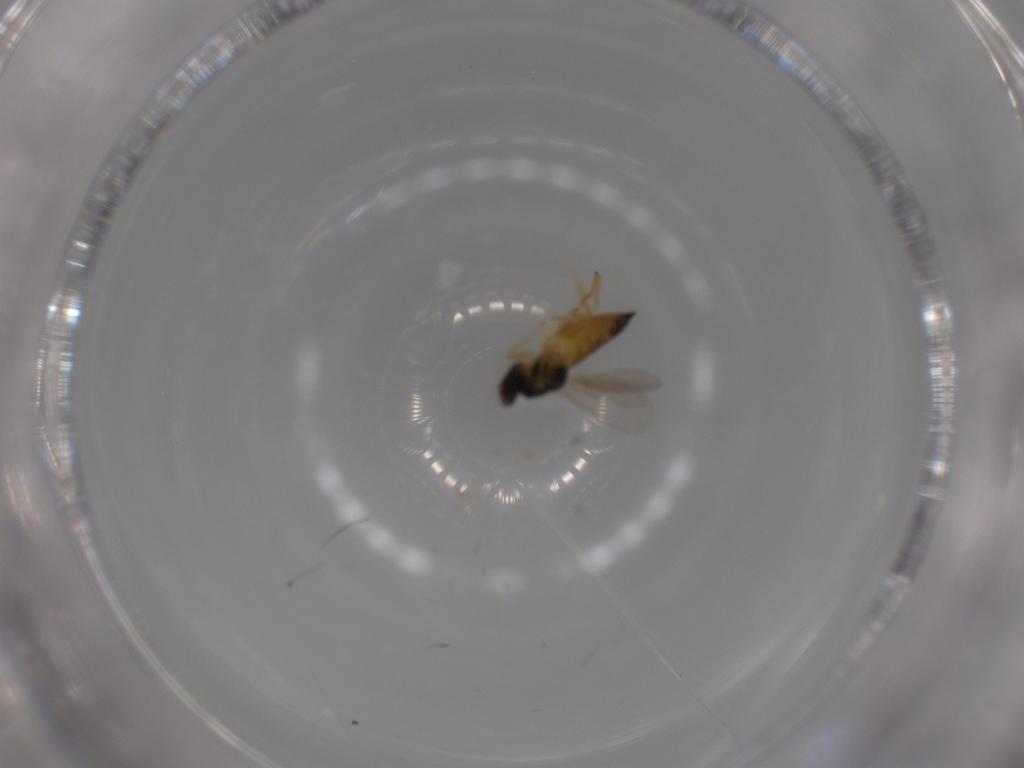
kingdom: Animalia
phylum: Arthropoda
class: Insecta
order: Hymenoptera
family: Eulophidae
